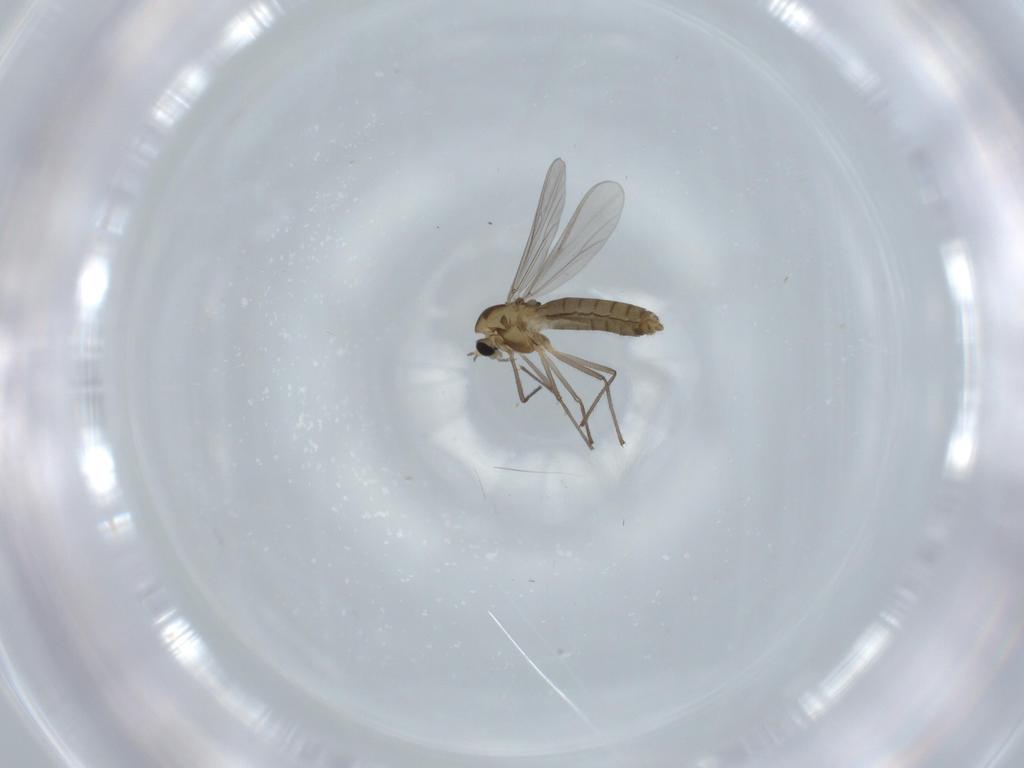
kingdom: Animalia
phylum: Arthropoda
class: Insecta
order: Diptera
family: Chironomidae
